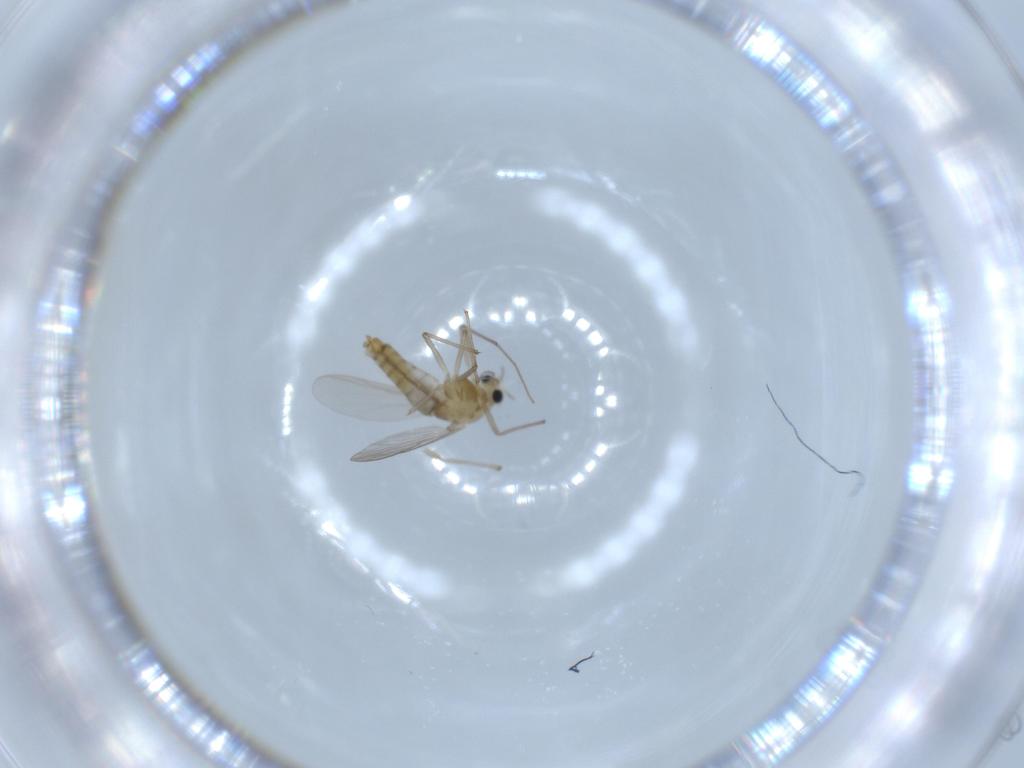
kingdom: Animalia
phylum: Arthropoda
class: Insecta
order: Diptera
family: Chironomidae
